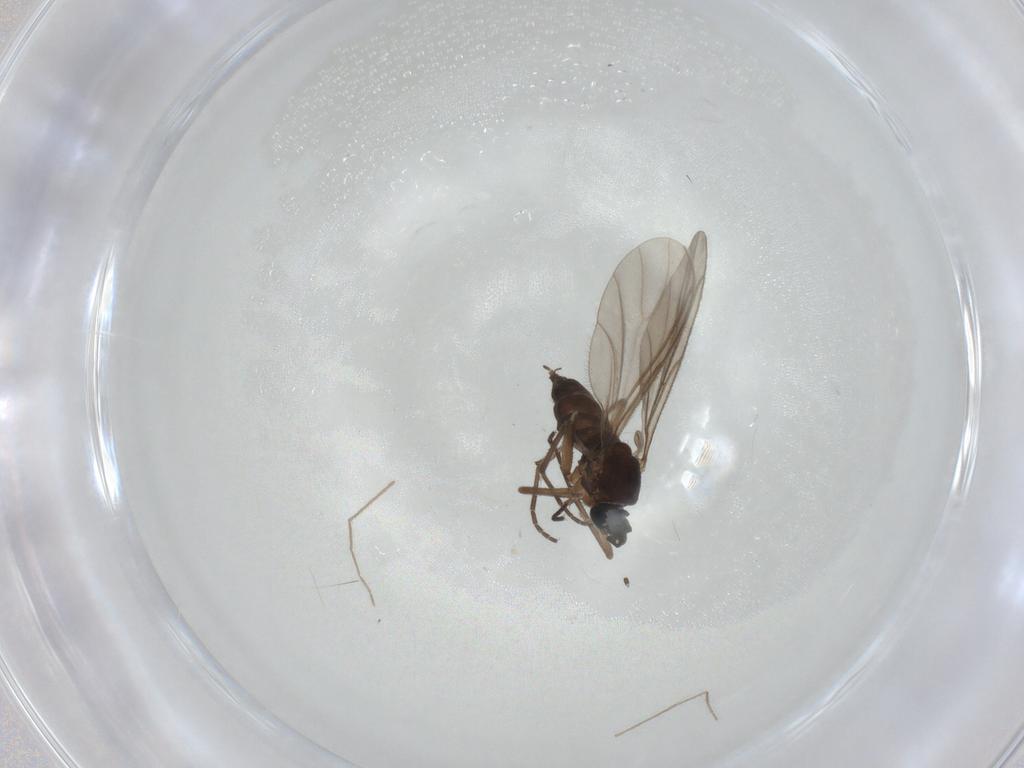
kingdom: Animalia
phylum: Arthropoda
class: Insecta
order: Diptera
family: Sciaridae
